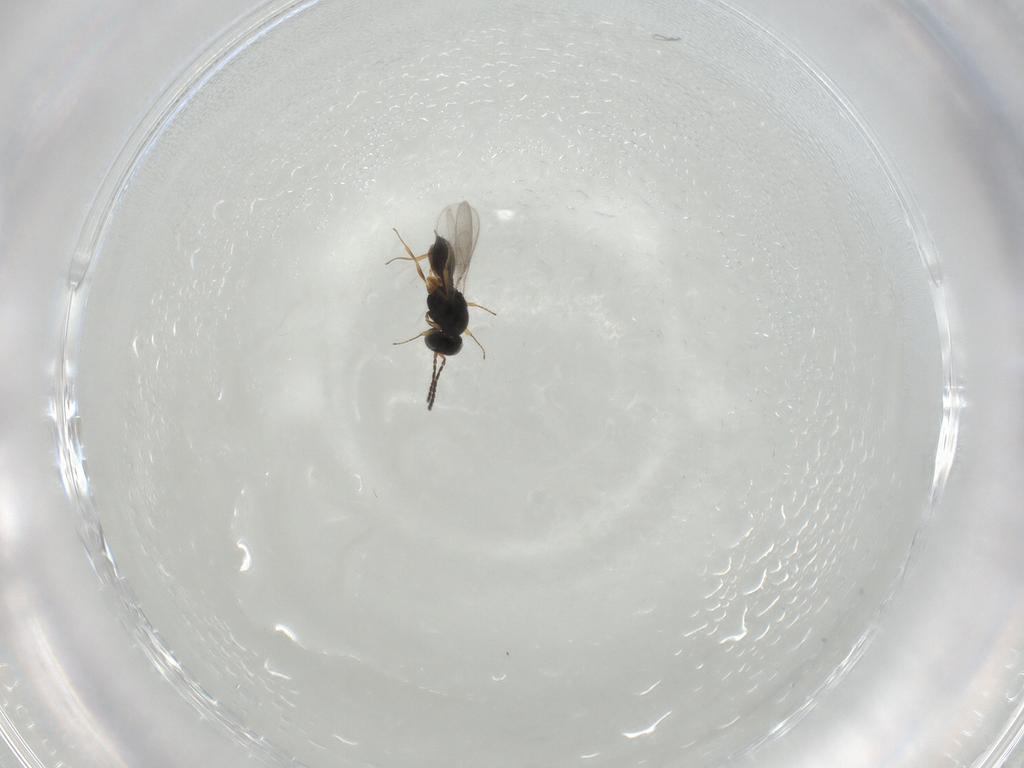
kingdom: Animalia
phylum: Arthropoda
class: Insecta
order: Hymenoptera
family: Scelionidae
